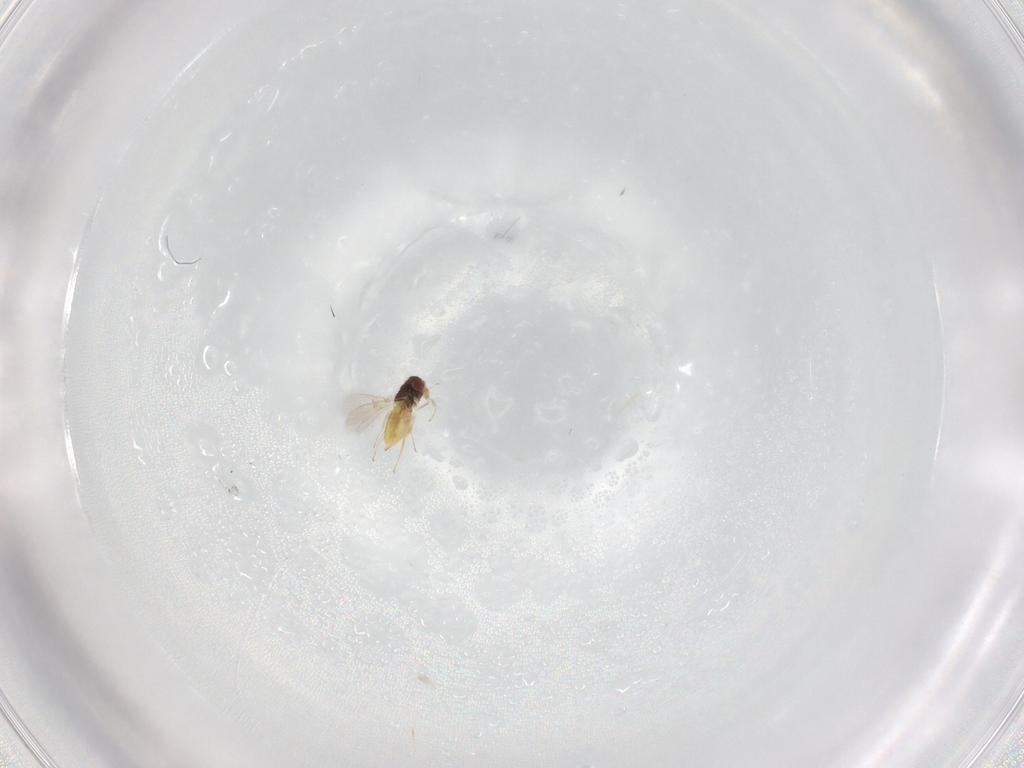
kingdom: Animalia
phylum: Arthropoda
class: Insecta
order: Hymenoptera
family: Trichogrammatidae
